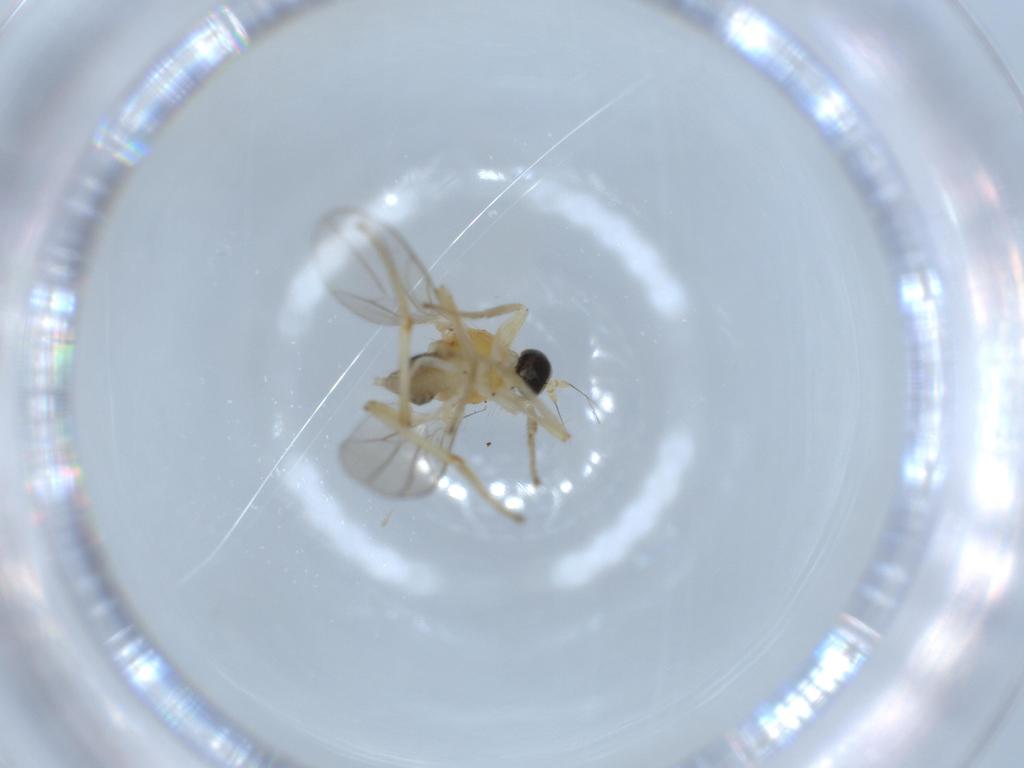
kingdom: Animalia
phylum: Arthropoda
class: Insecta
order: Diptera
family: Hybotidae
